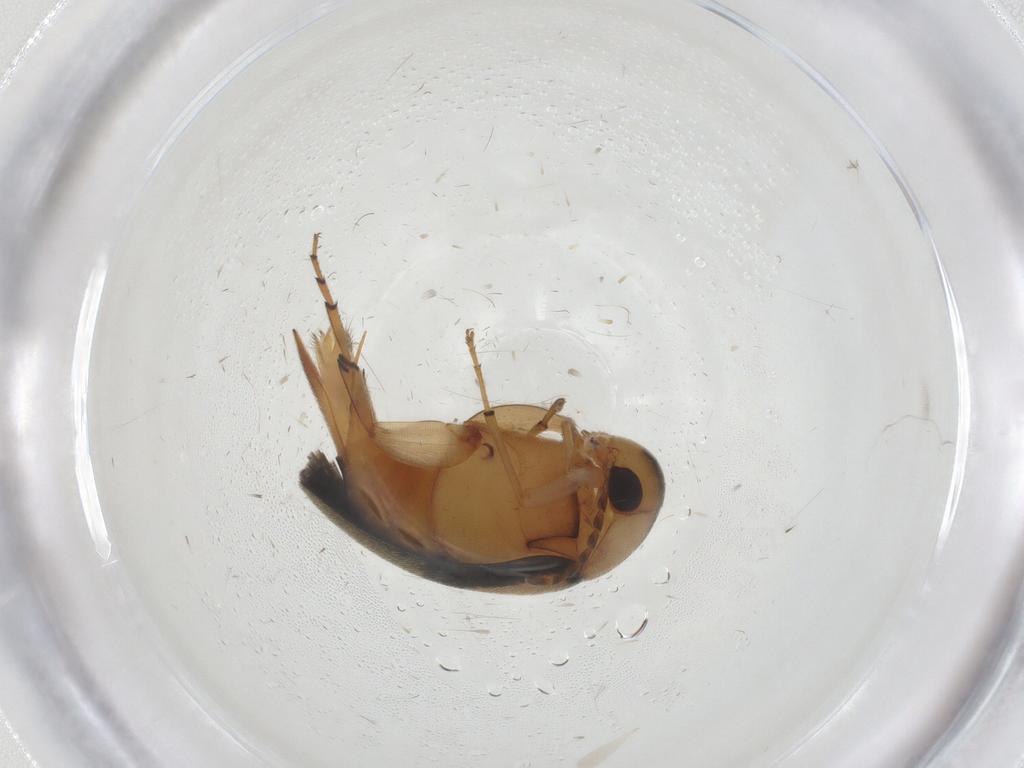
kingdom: Animalia
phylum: Arthropoda
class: Insecta
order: Coleoptera
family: Mordellidae
